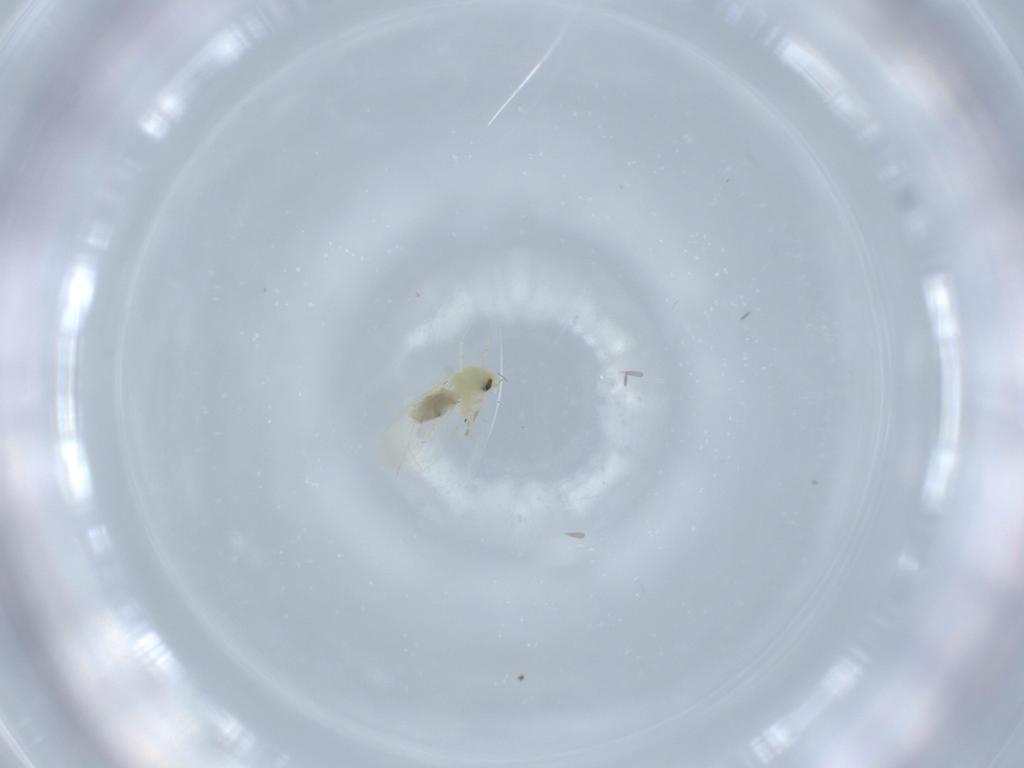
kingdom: Animalia
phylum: Arthropoda
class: Insecta
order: Hemiptera
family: Aleyrodidae
